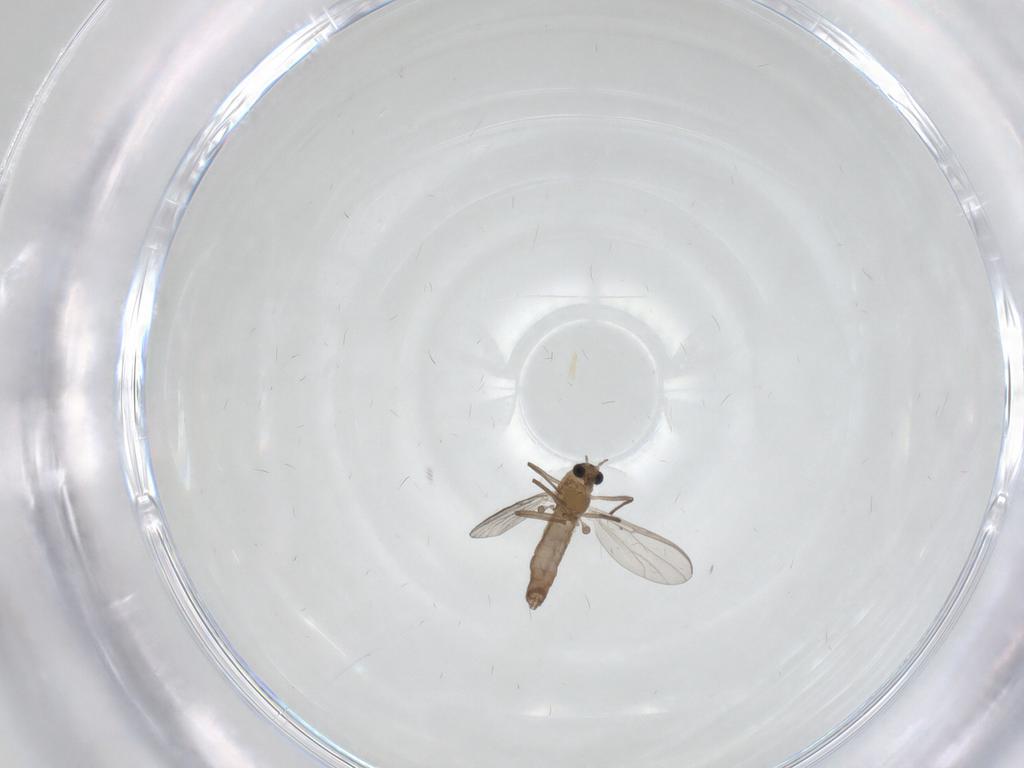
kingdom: Animalia
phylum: Arthropoda
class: Insecta
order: Diptera
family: Chironomidae
